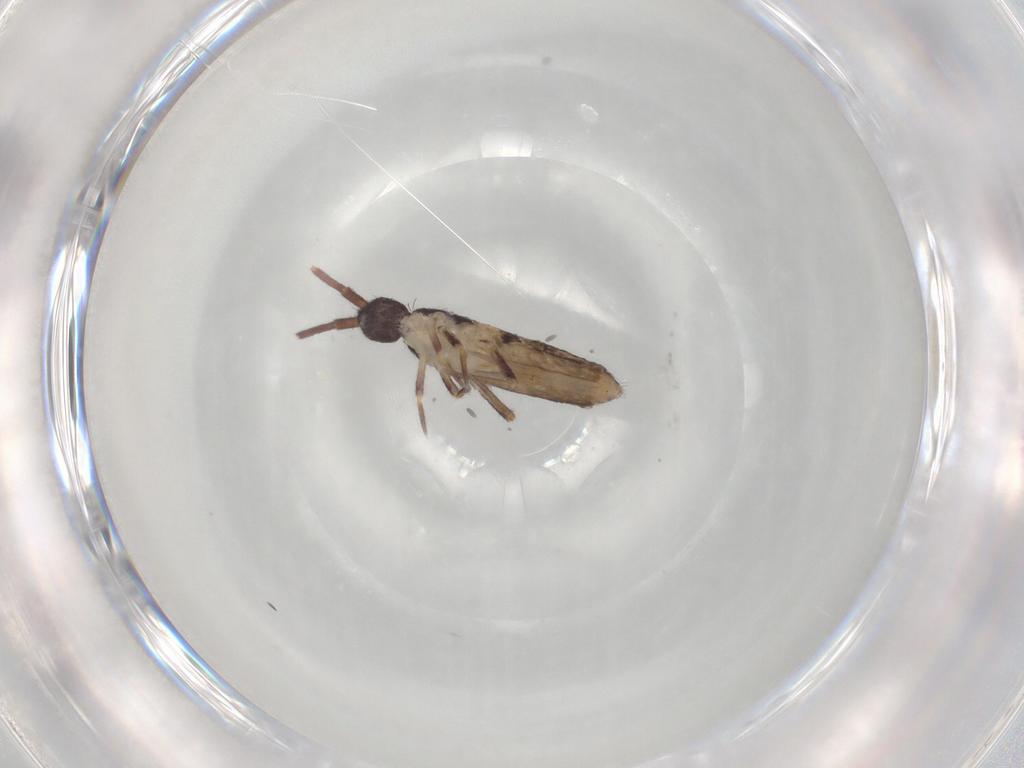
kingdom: Animalia
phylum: Arthropoda
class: Collembola
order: Entomobryomorpha
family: Entomobryidae
